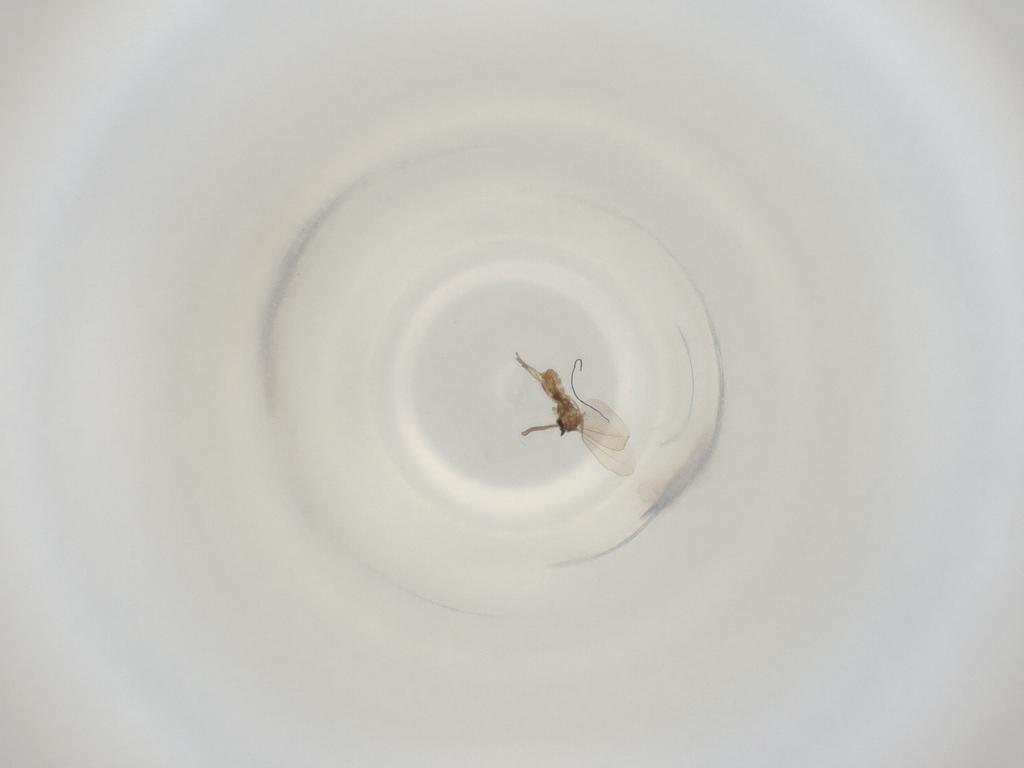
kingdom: Animalia
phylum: Arthropoda
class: Insecta
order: Diptera
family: Cecidomyiidae
